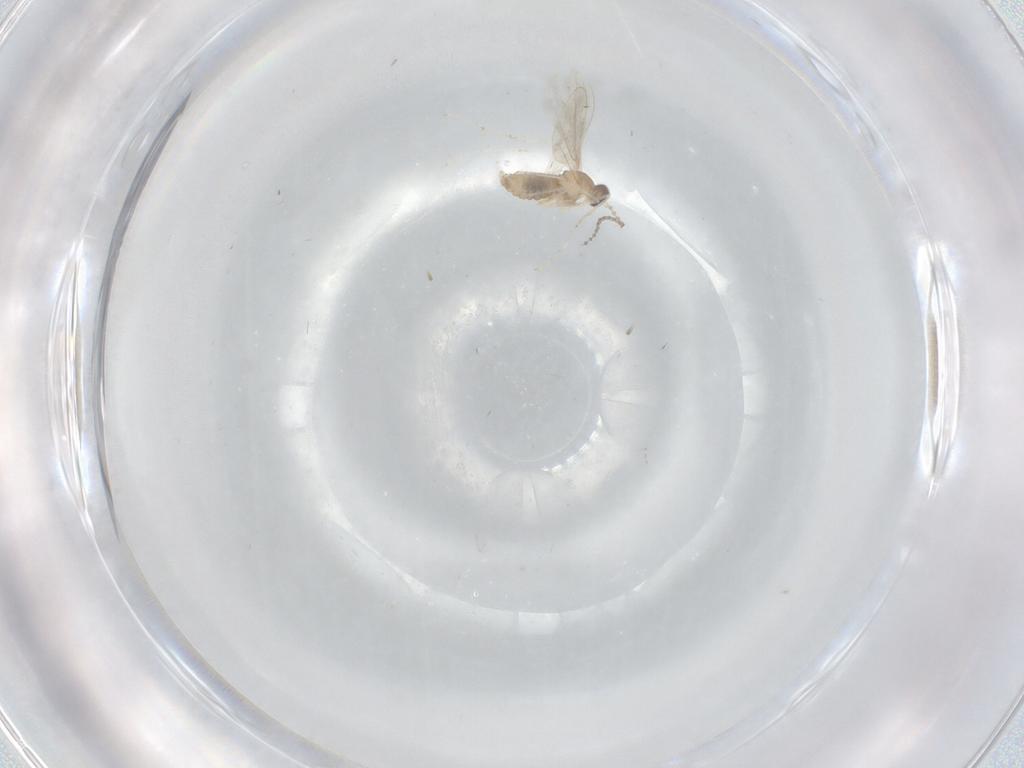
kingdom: Animalia
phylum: Arthropoda
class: Insecta
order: Diptera
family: Cecidomyiidae
